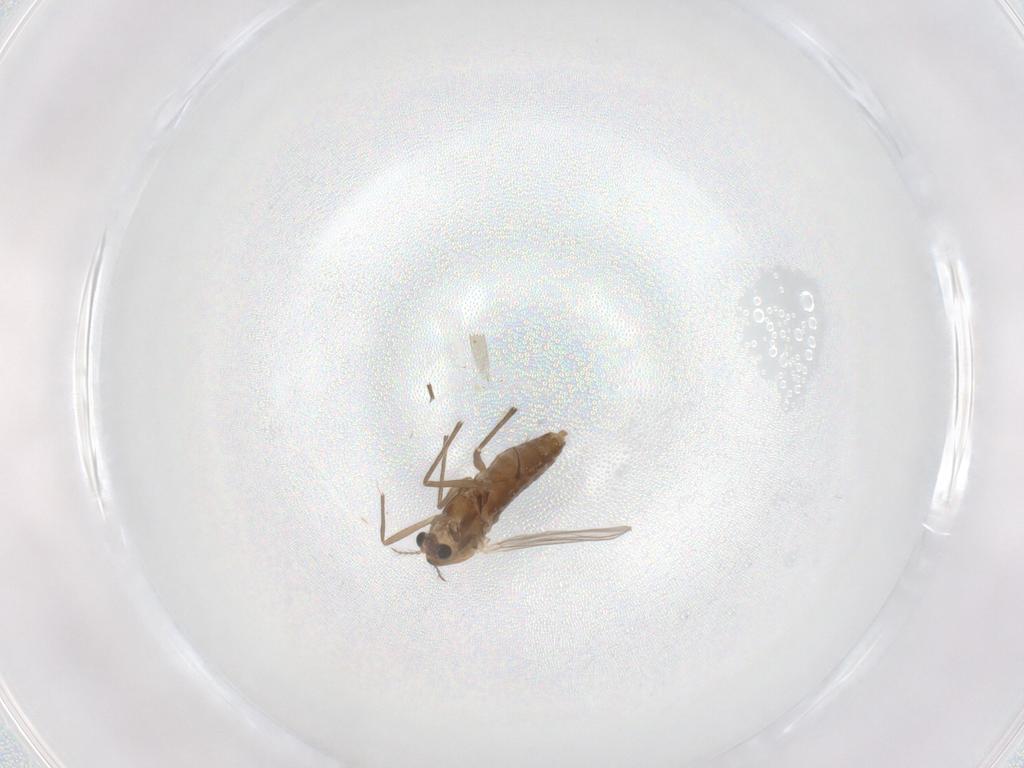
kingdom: Animalia
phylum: Arthropoda
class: Insecta
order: Diptera
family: Chironomidae
